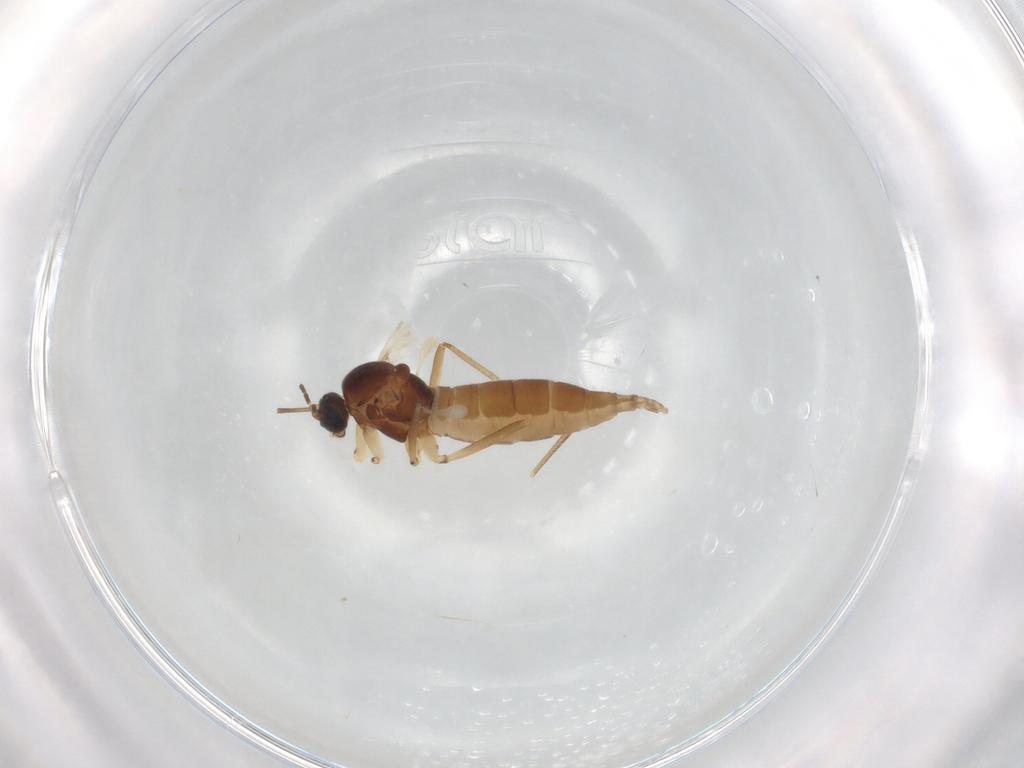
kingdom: Animalia
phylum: Arthropoda
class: Insecta
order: Diptera
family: Sciaridae
